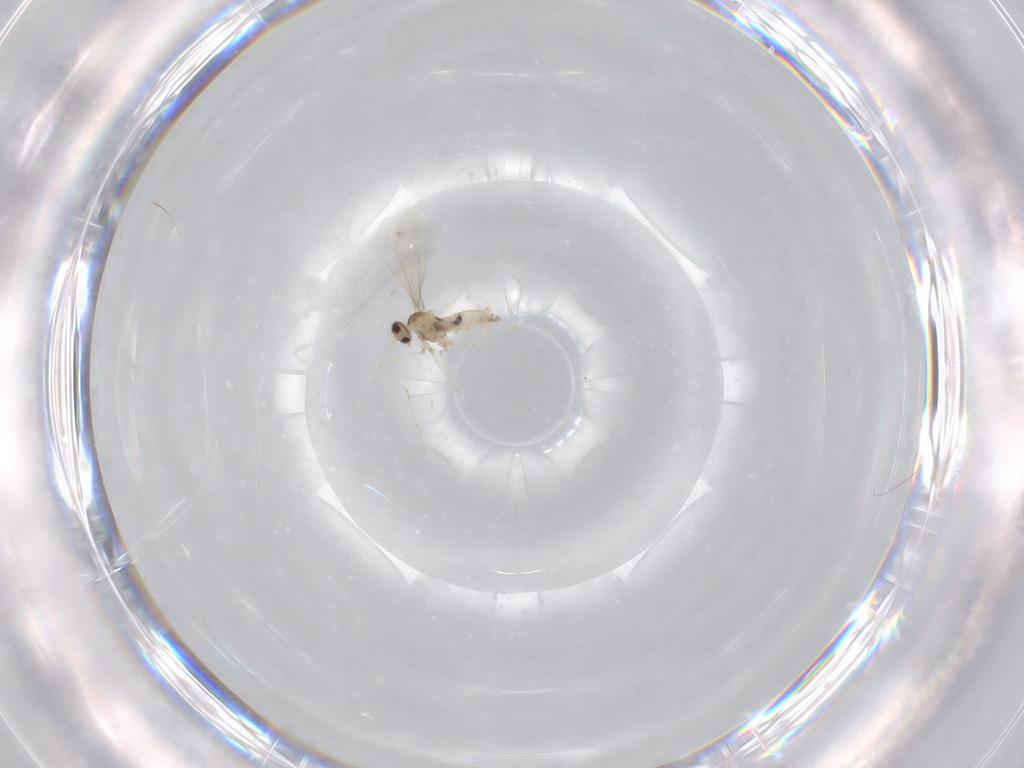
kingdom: Animalia
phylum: Arthropoda
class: Insecta
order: Diptera
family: Cecidomyiidae
